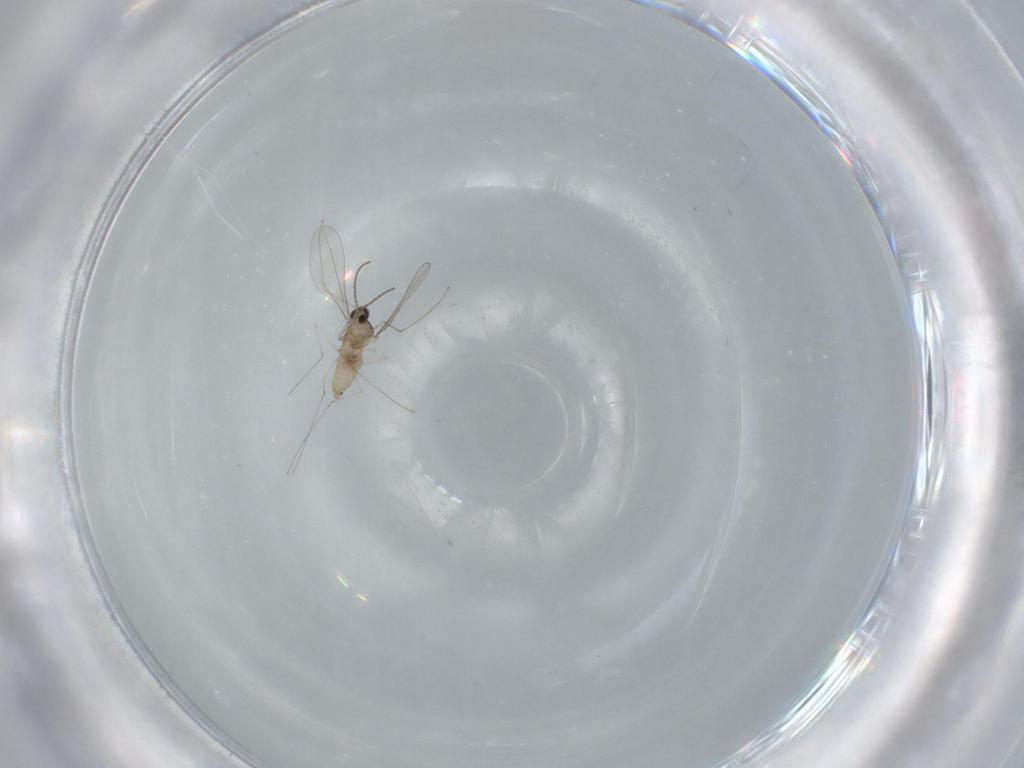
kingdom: Animalia
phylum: Arthropoda
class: Insecta
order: Diptera
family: Cecidomyiidae
